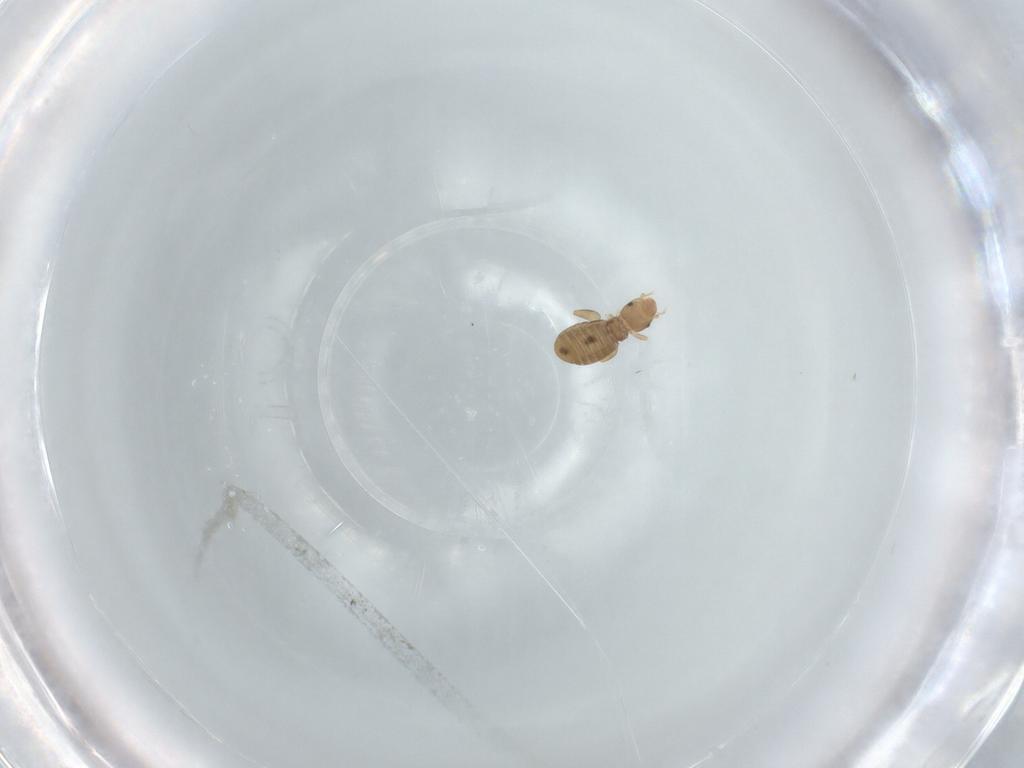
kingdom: Animalia
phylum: Arthropoda
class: Insecta
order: Psocodea
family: Liposcelididae
